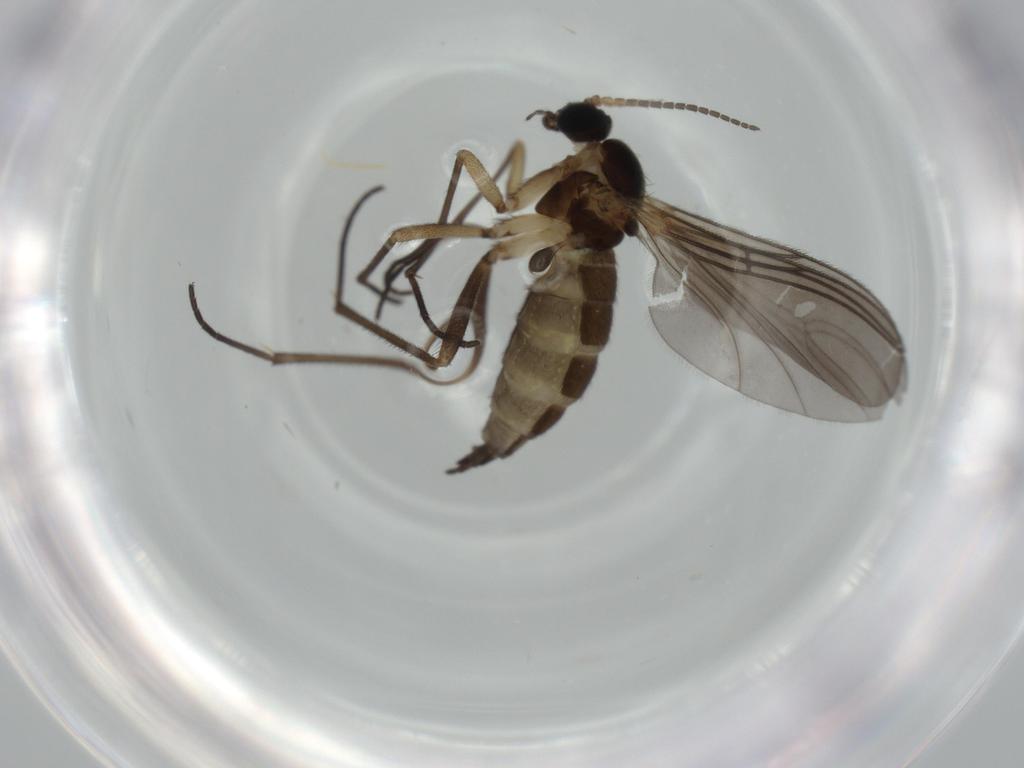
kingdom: Animalia
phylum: Arthropoda
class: Insecta
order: Diptera
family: Sciaridae
